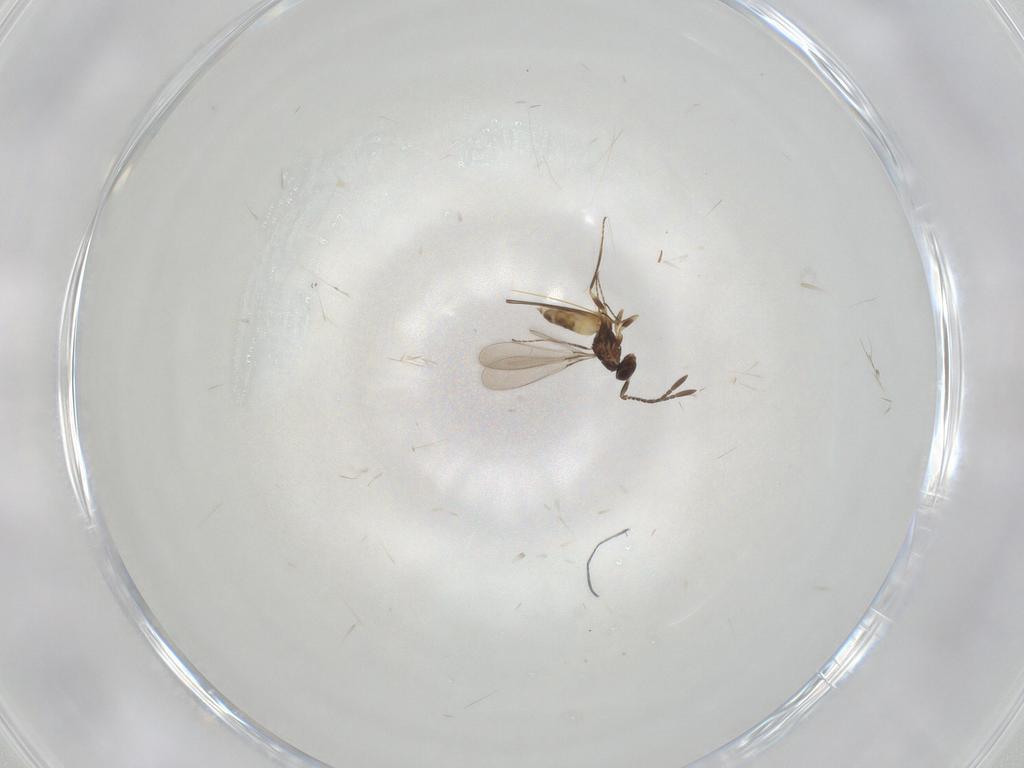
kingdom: Animalia
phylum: Arthropoda
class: Insecta
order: Hymenoptera
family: Mymaridae
